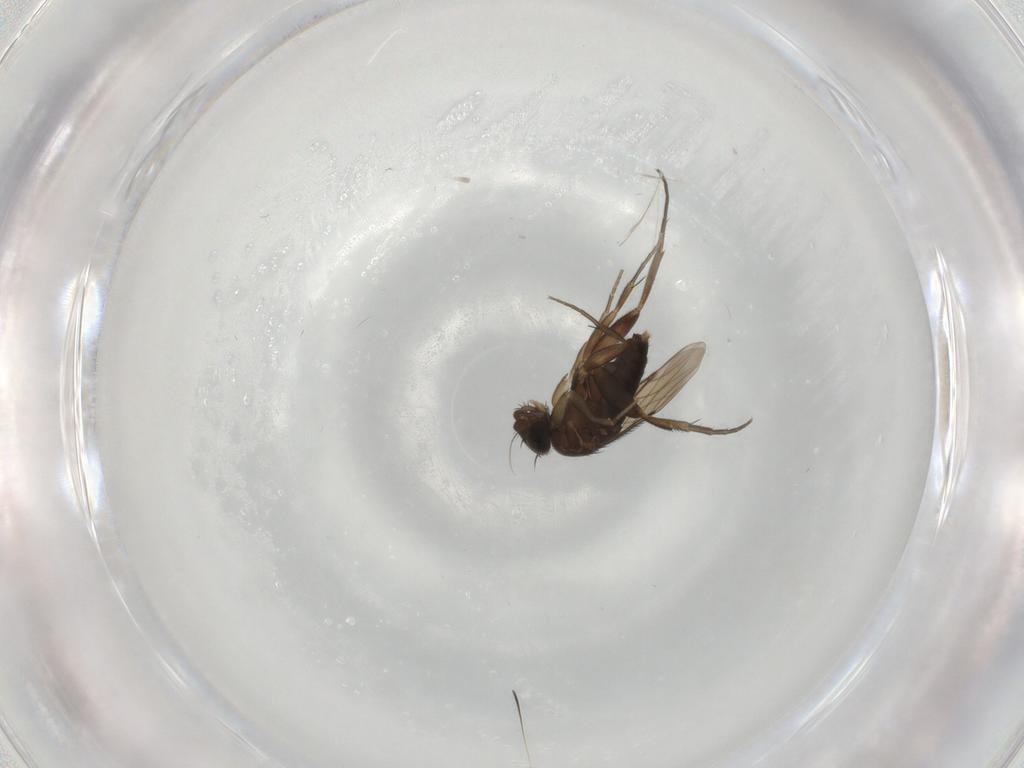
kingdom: Animalia
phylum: Arthropoda
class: Insecta
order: Diptera
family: Phoridae
